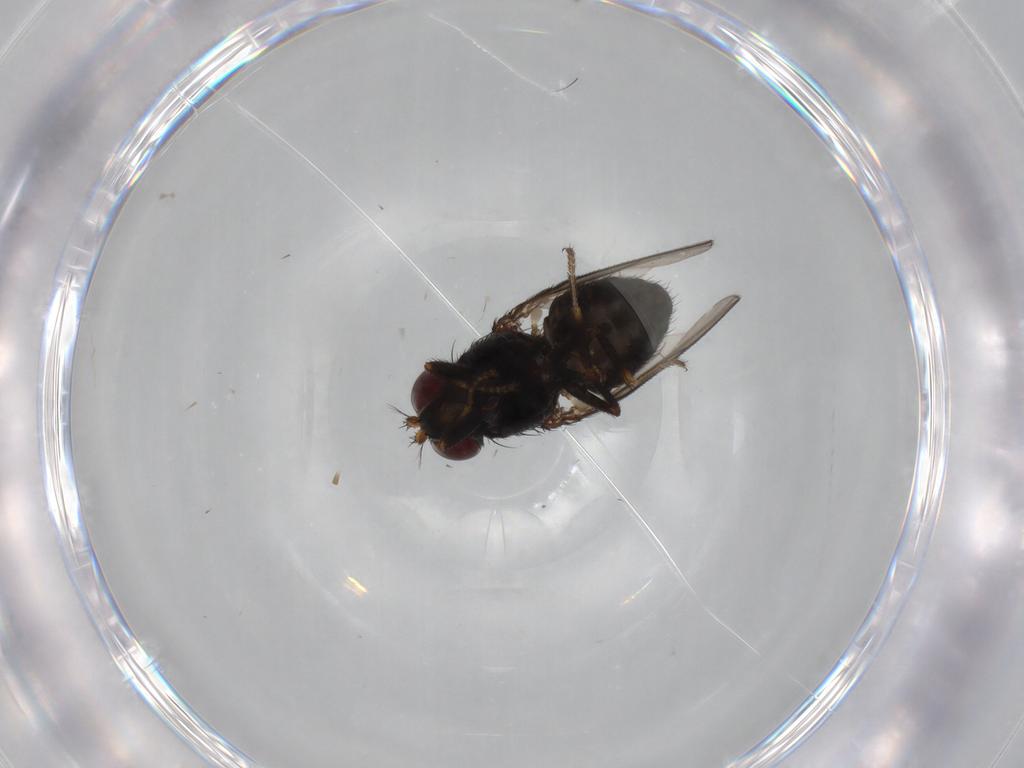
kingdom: Animalia
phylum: Arthropoda
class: Insecta
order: Diptera
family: Dolichopodidae
